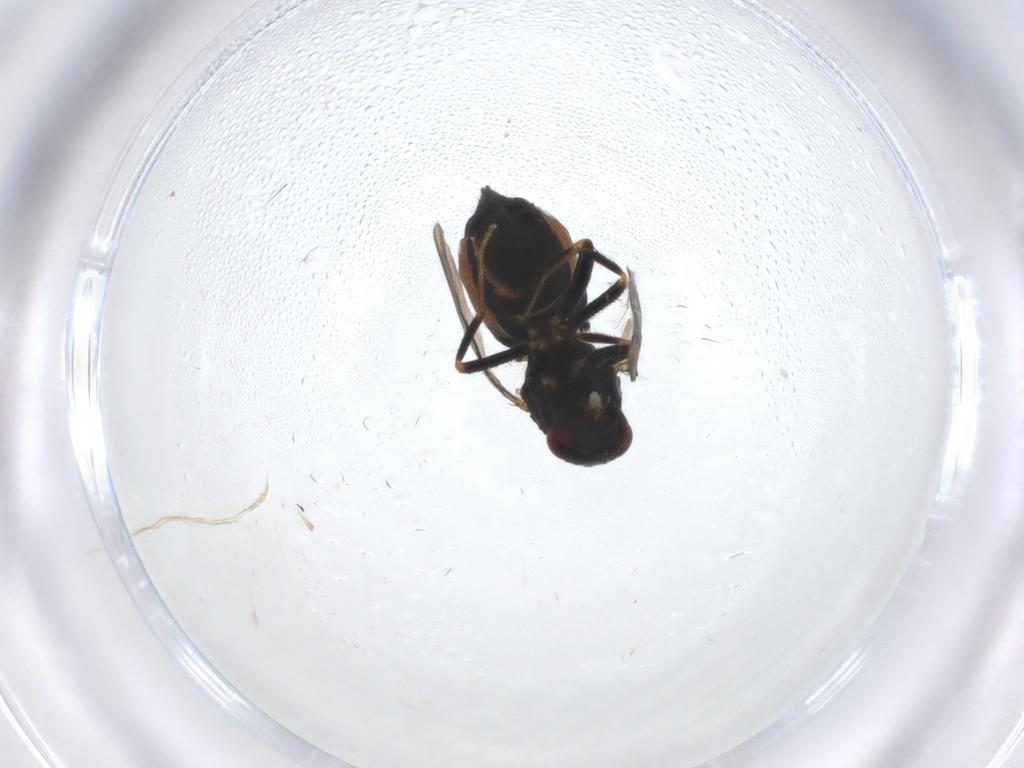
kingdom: Animalia
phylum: Arthropoda
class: Insecta
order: Diptera
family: Sphaeroceridae
